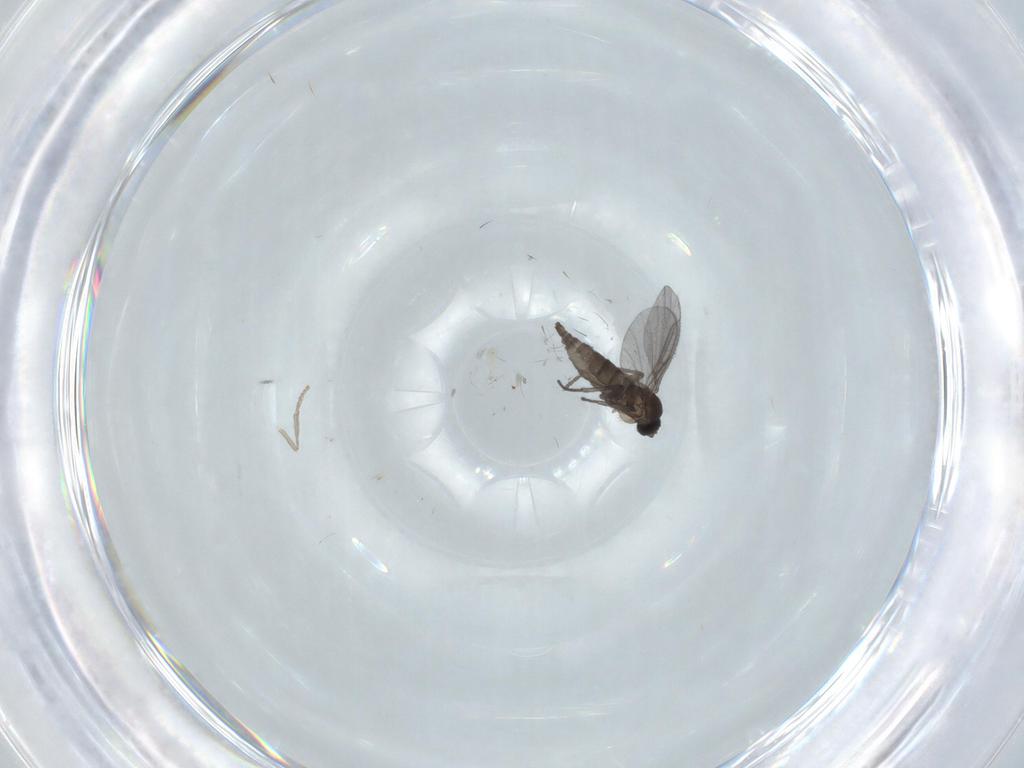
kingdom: Animalia
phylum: Arthropoda
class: Insecta
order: Diptera
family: Psychodidae
